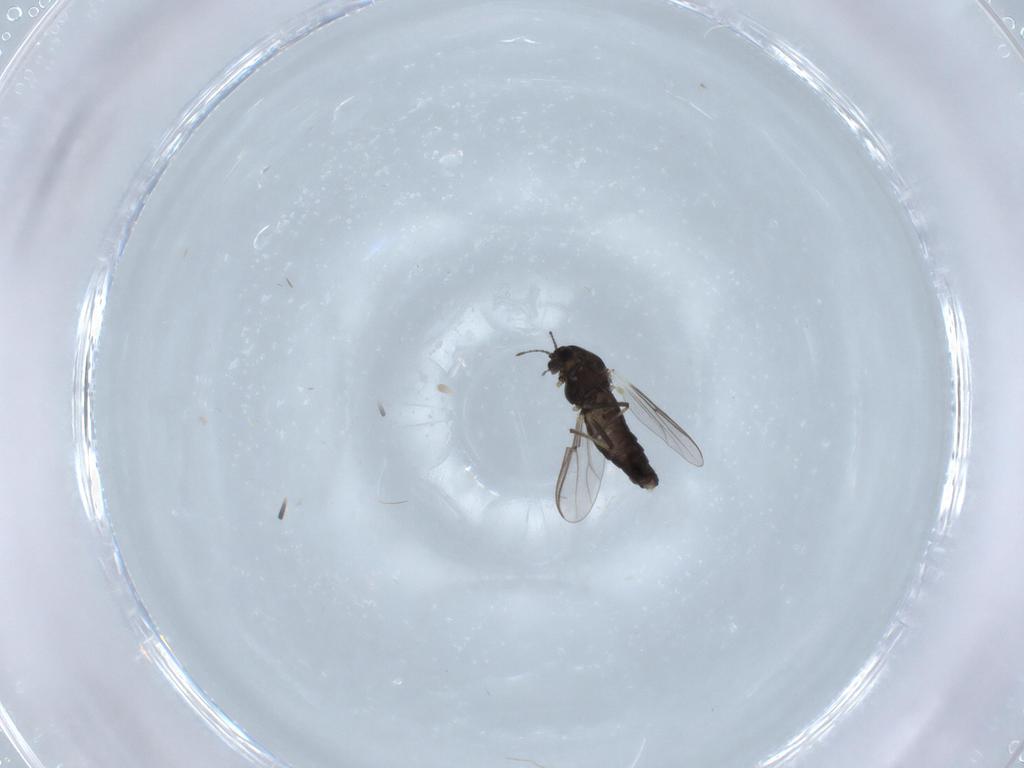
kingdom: Animalia
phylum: Arthropoda
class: Insecta
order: Diptera
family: Chironomidae
